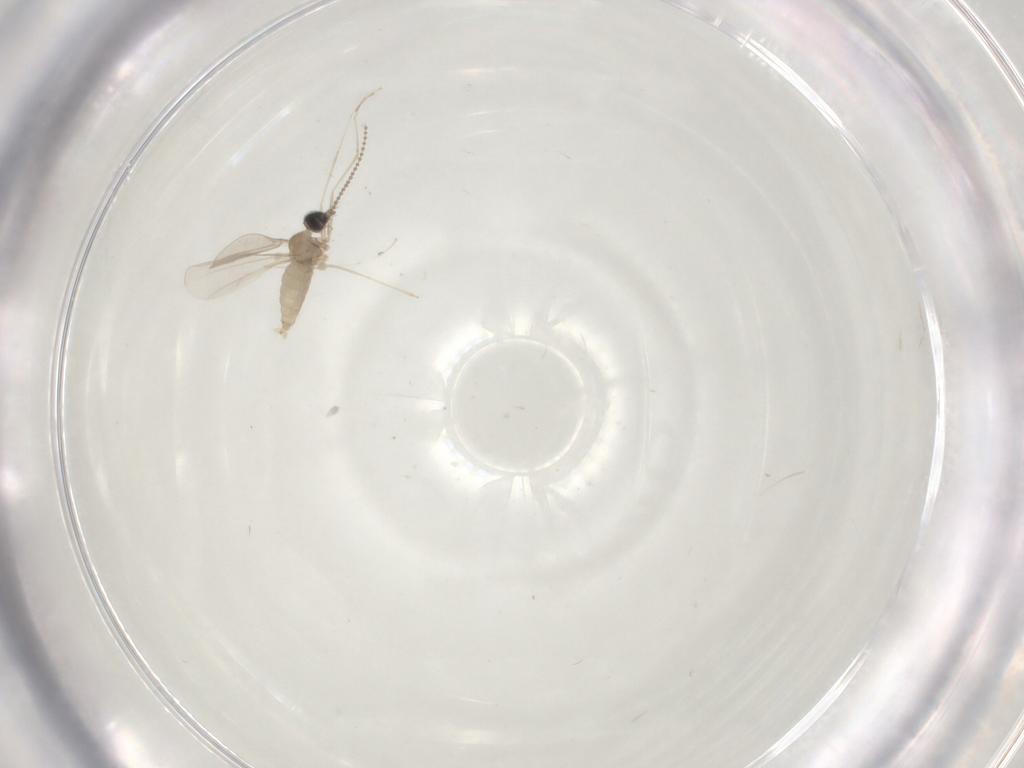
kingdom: Animalia
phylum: Arthropoda
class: Insecta
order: Diptera
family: Cecidomyiidae
